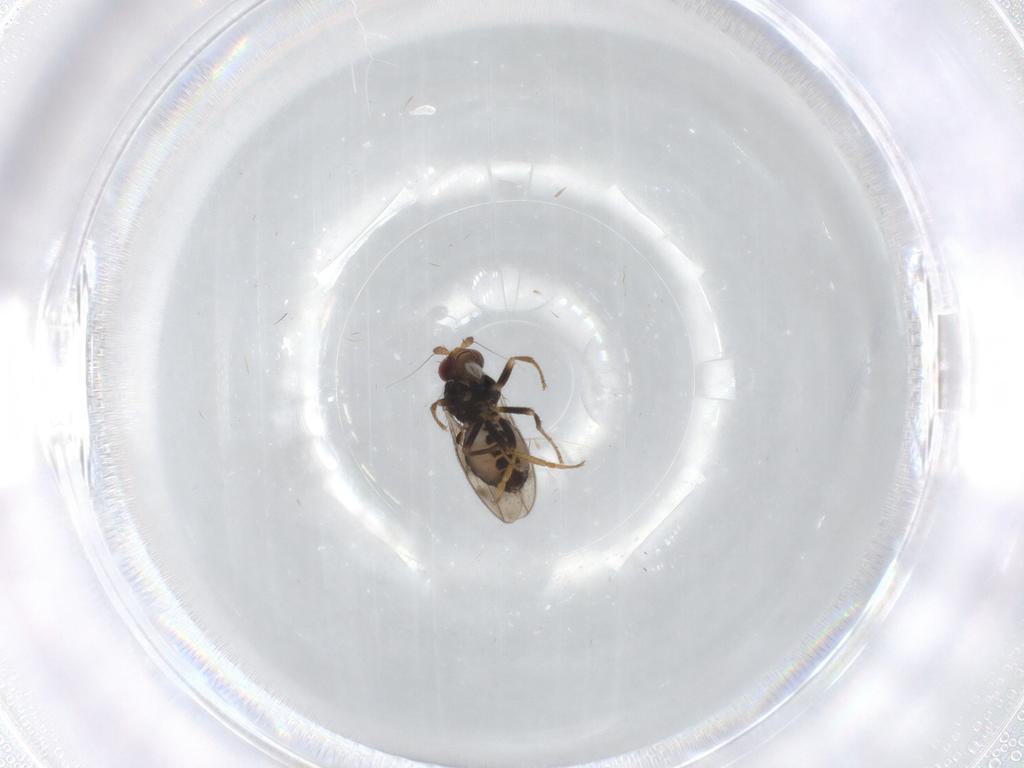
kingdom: Animalia
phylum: Arthropoda
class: Insecta
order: Diptera
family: Sphaeroceridae
